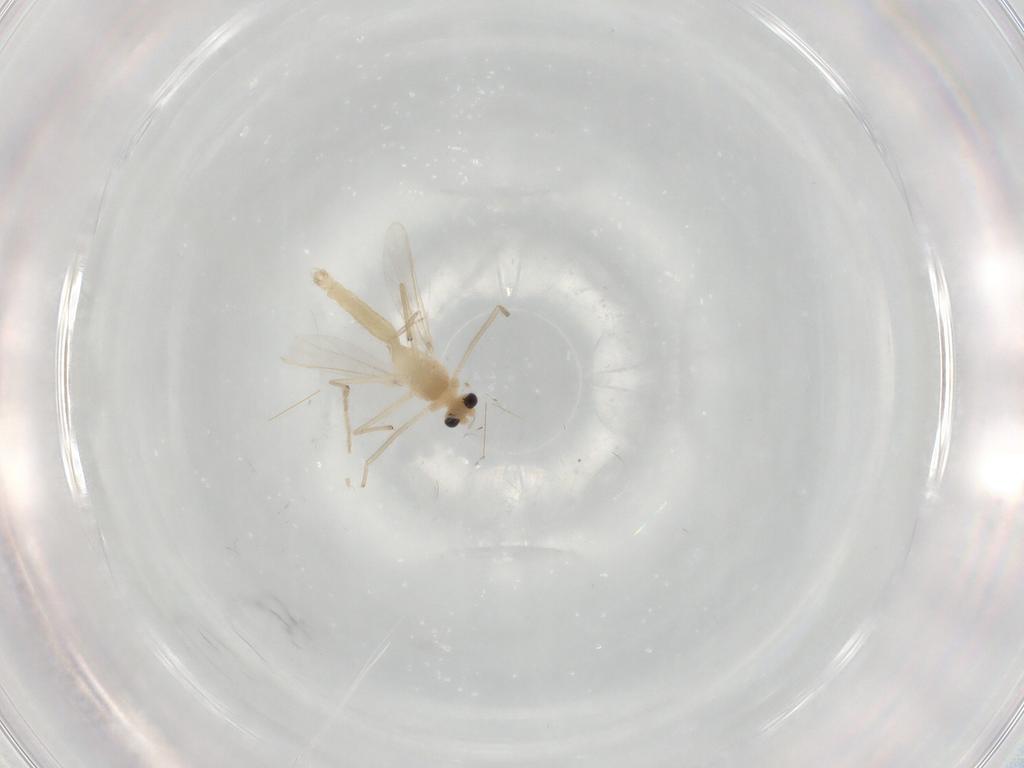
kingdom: Animalia
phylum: Arthropoda
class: Insecta
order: Diptera
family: Chironomidae
